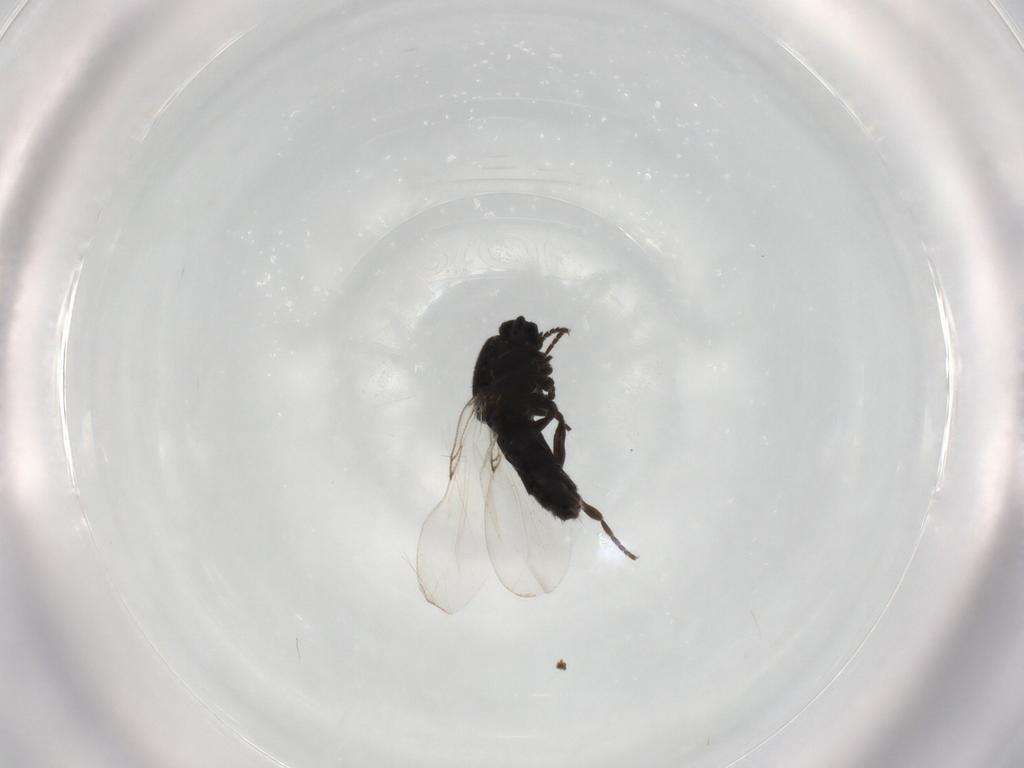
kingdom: Animalia
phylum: Arthropoda
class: Insecta
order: Diptera
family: Scatopsidae
